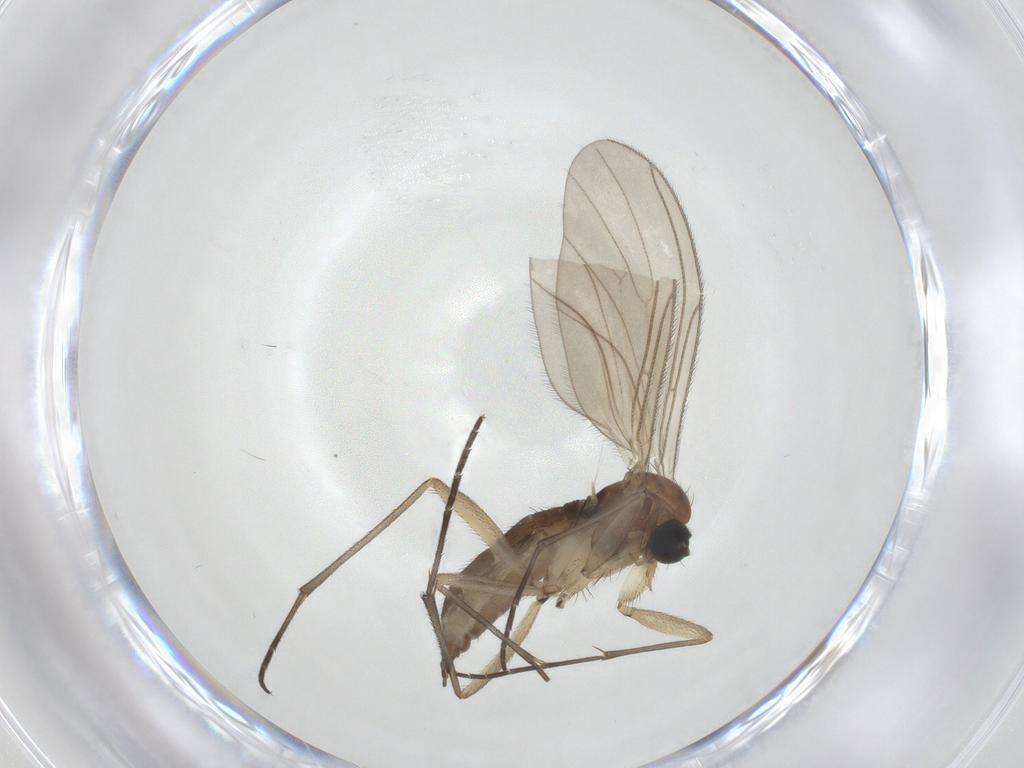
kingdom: Animalia
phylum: Arthropoda
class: Insecta
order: Diptera
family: Sciaridae
